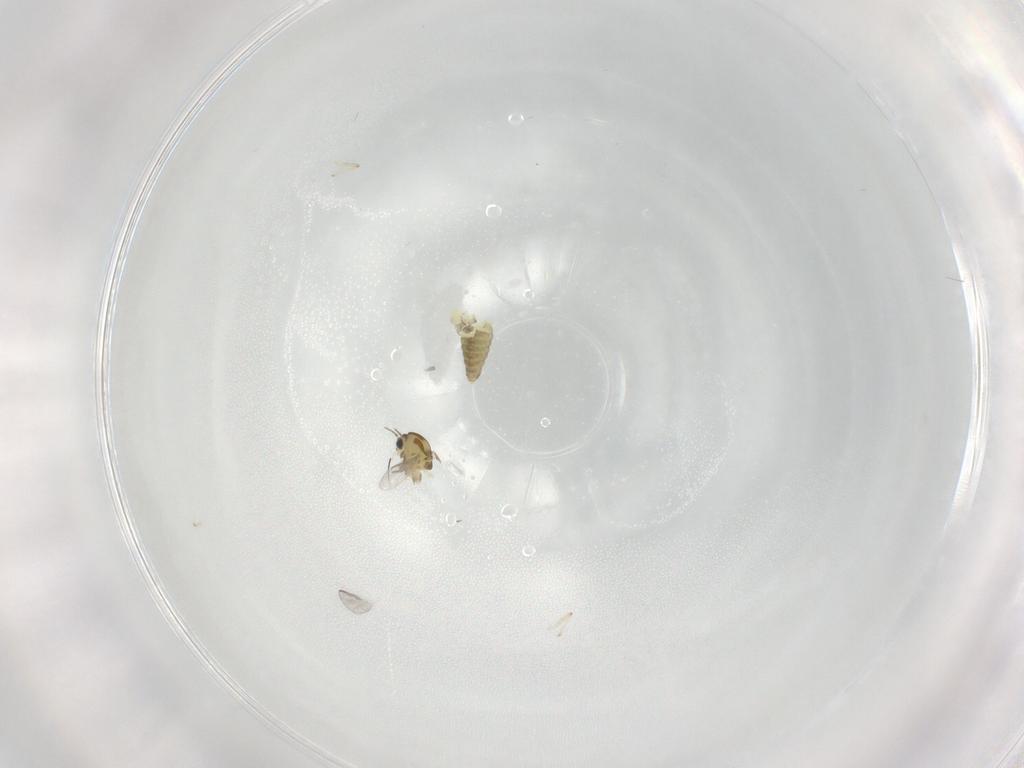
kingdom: Animalia
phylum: Arthropoda
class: Insecta
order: Diptera
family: Chironomidae
